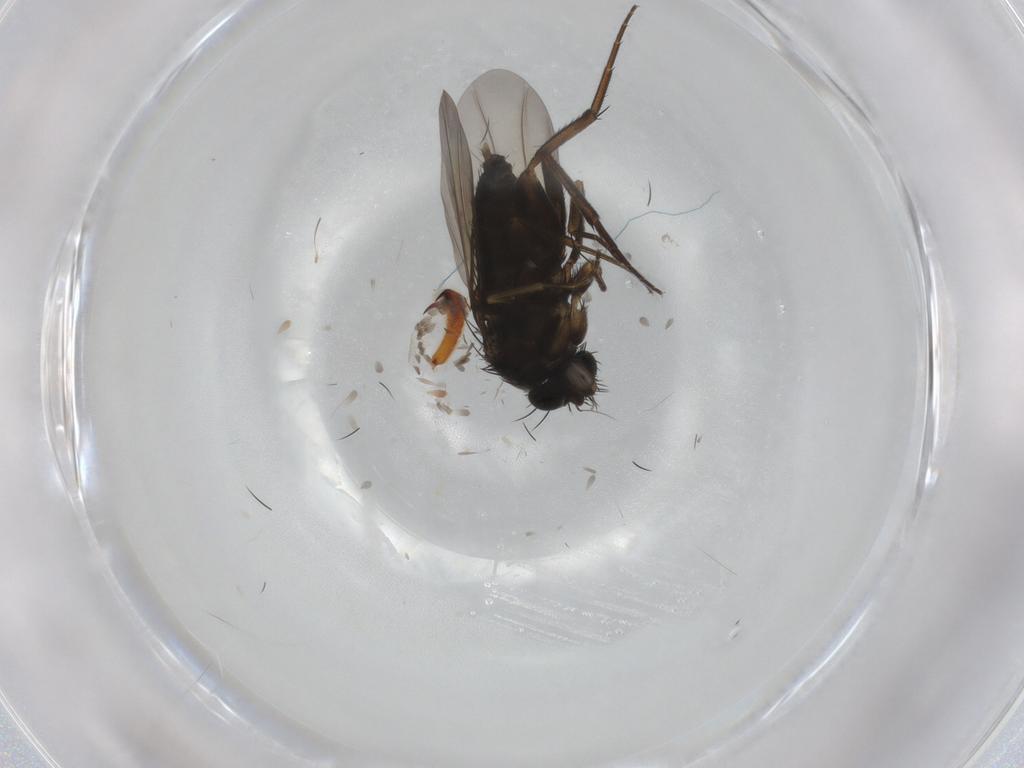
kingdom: Animalia
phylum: Arthropoda
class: Insecta
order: Diptera
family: Phoridae
